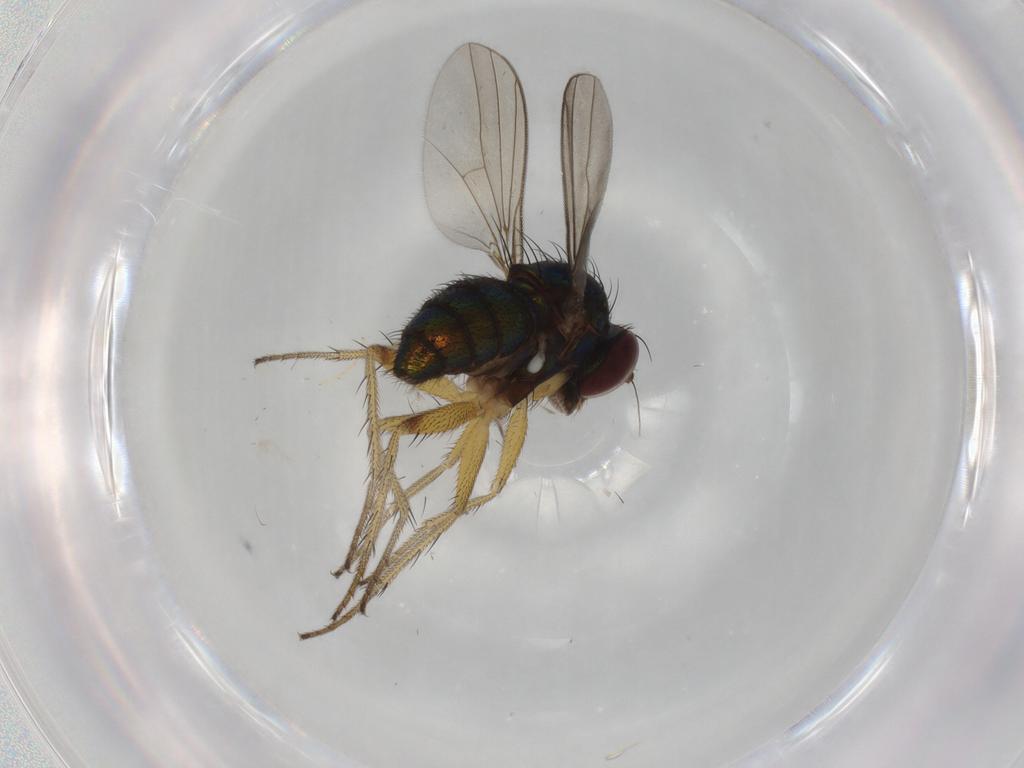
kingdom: Animalia
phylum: Arthropoda
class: Insecta
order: Diptera
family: Dolichopodidae
